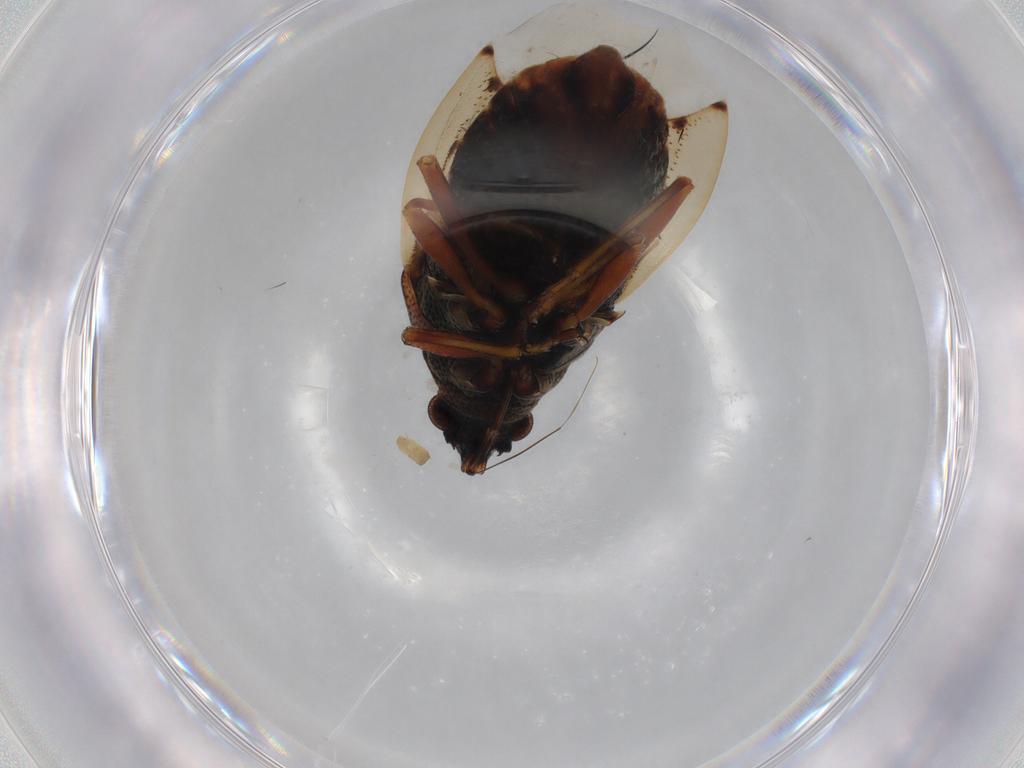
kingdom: Animalia
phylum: Arthropoda
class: Insecta
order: Hemiptera
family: Lygaeidae
